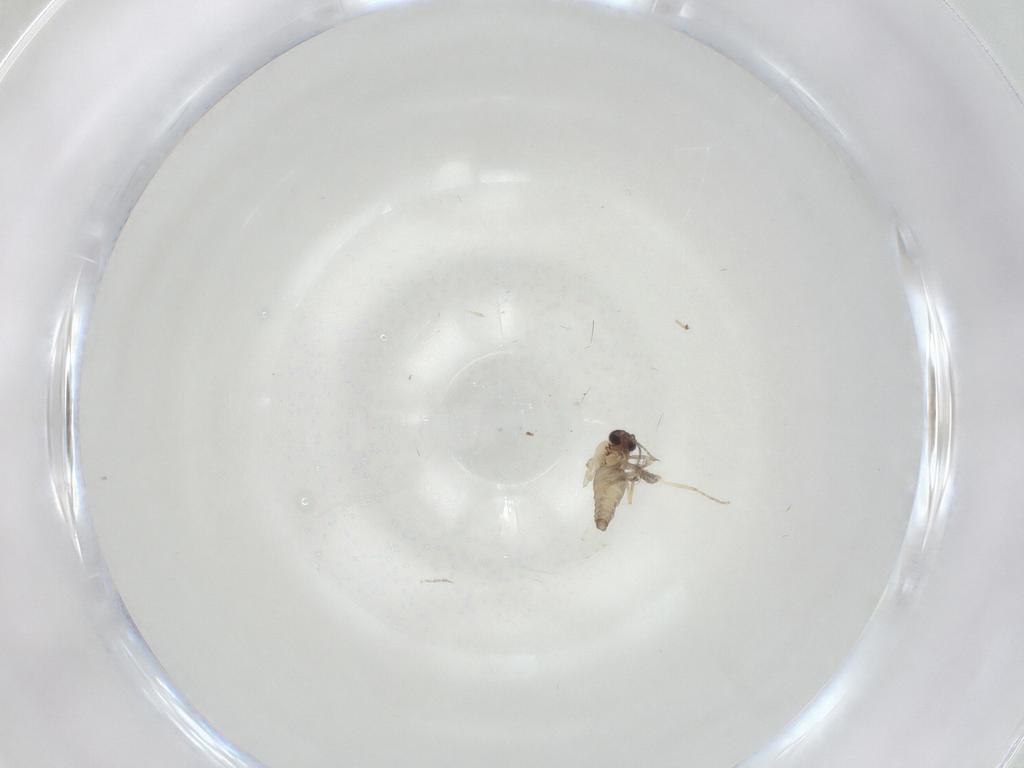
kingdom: Animalia
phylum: Arthropoda
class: Insecta
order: Diptera
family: Ceratopogonidae
